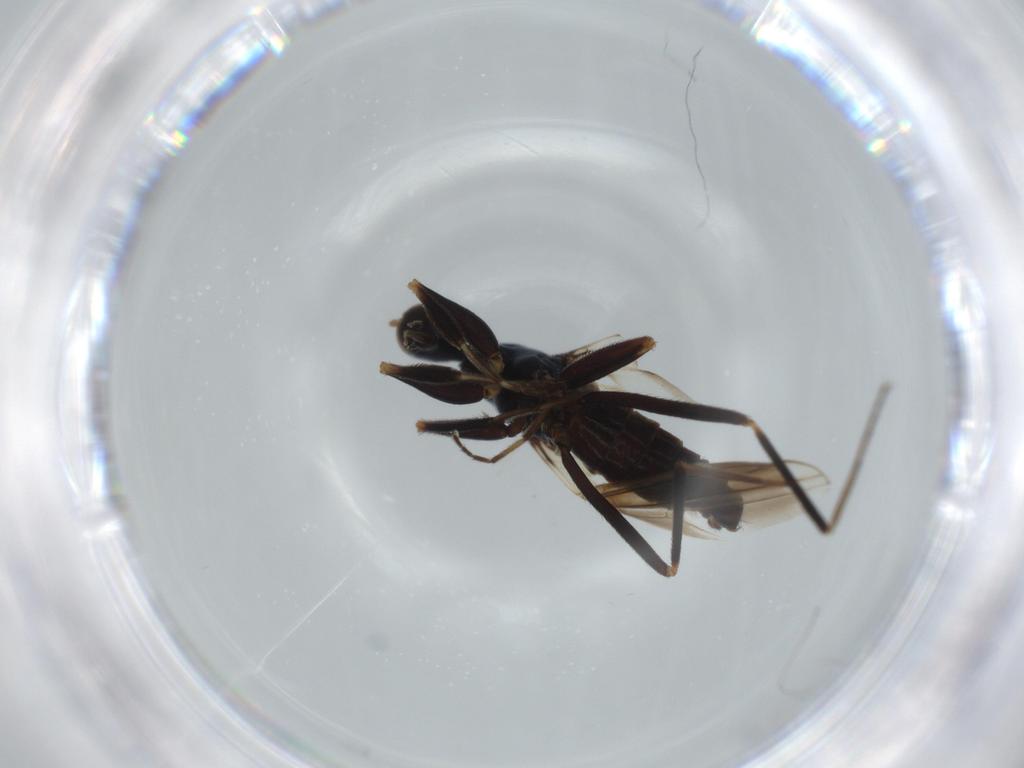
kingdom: Animalia
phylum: Arthropoda
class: Insecta
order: Diptera
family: Hybotidae
